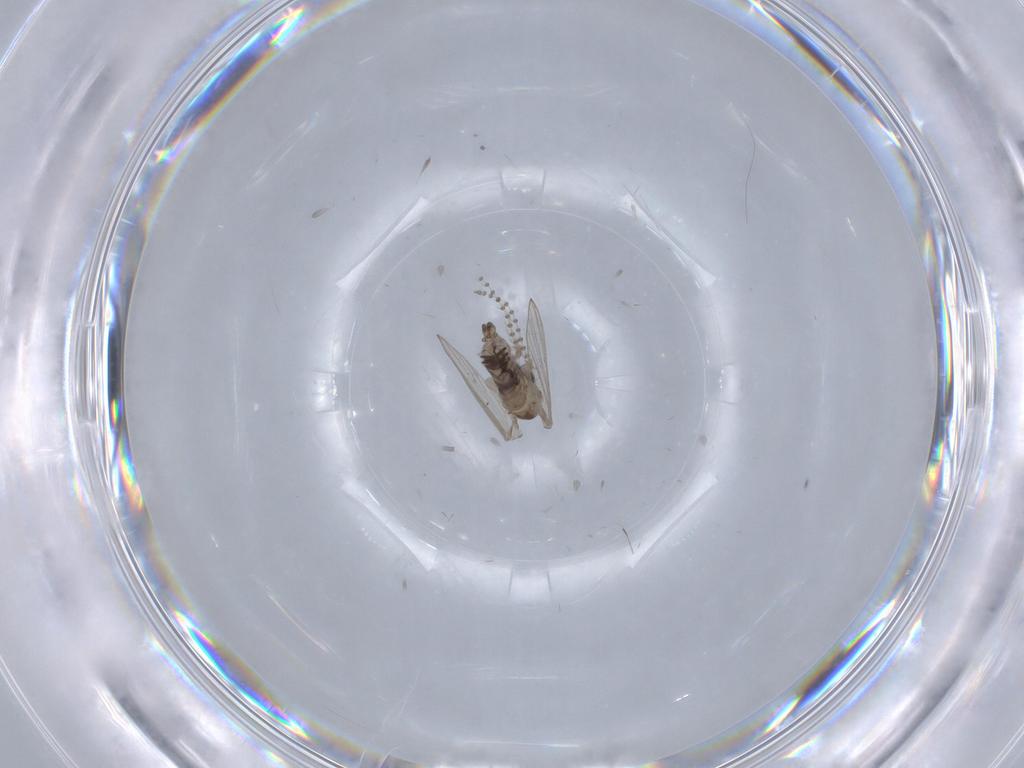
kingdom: Animalia
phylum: Arthropoda
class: Insecta
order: Diptera
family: Psychodidae
